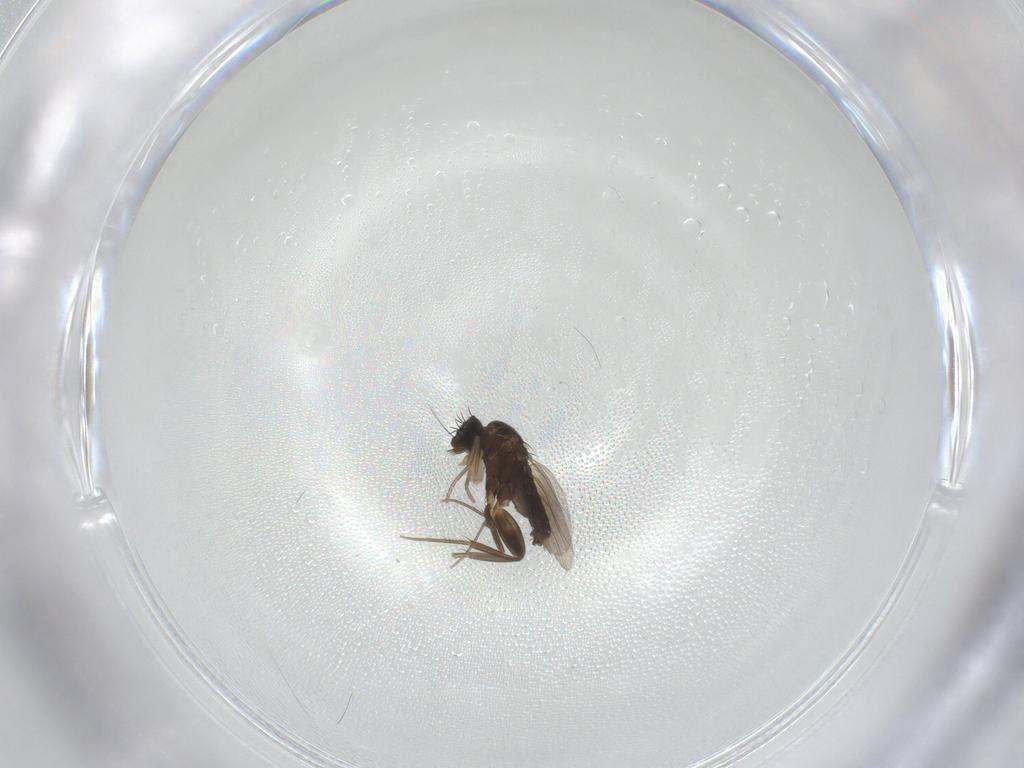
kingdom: Animalia
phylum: Arthropoda
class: Insecta
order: Diptera
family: Phoridae
